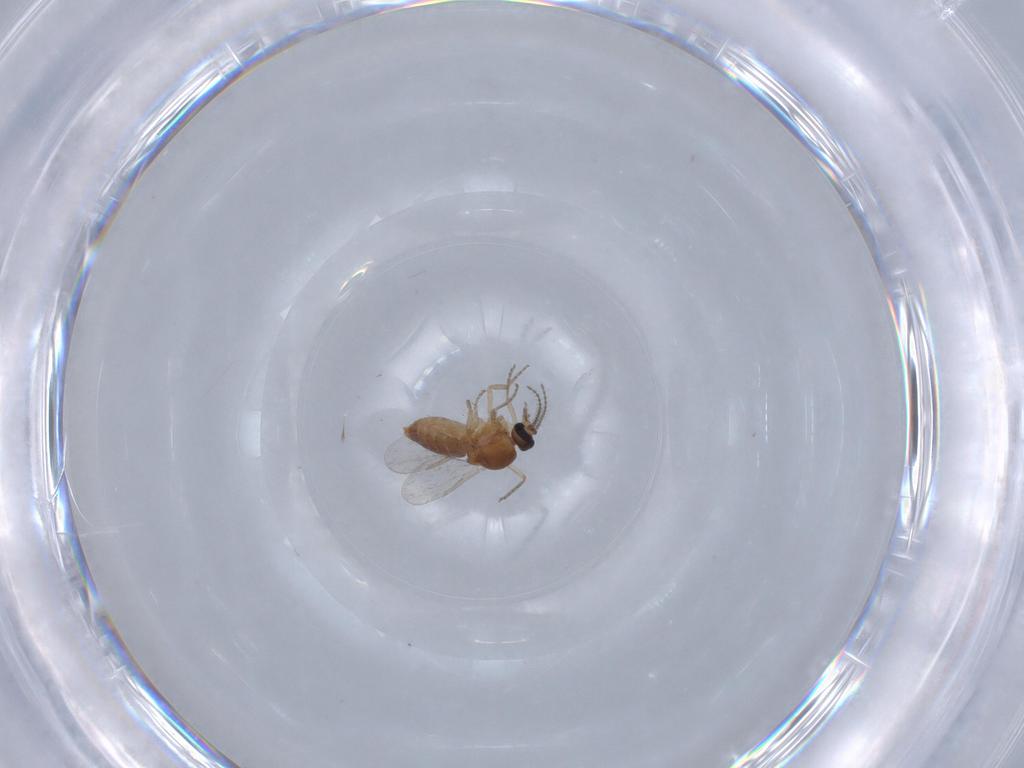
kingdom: Animalia
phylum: Arthropoda
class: Insecta
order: Diptera
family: Ceratopogonidae
